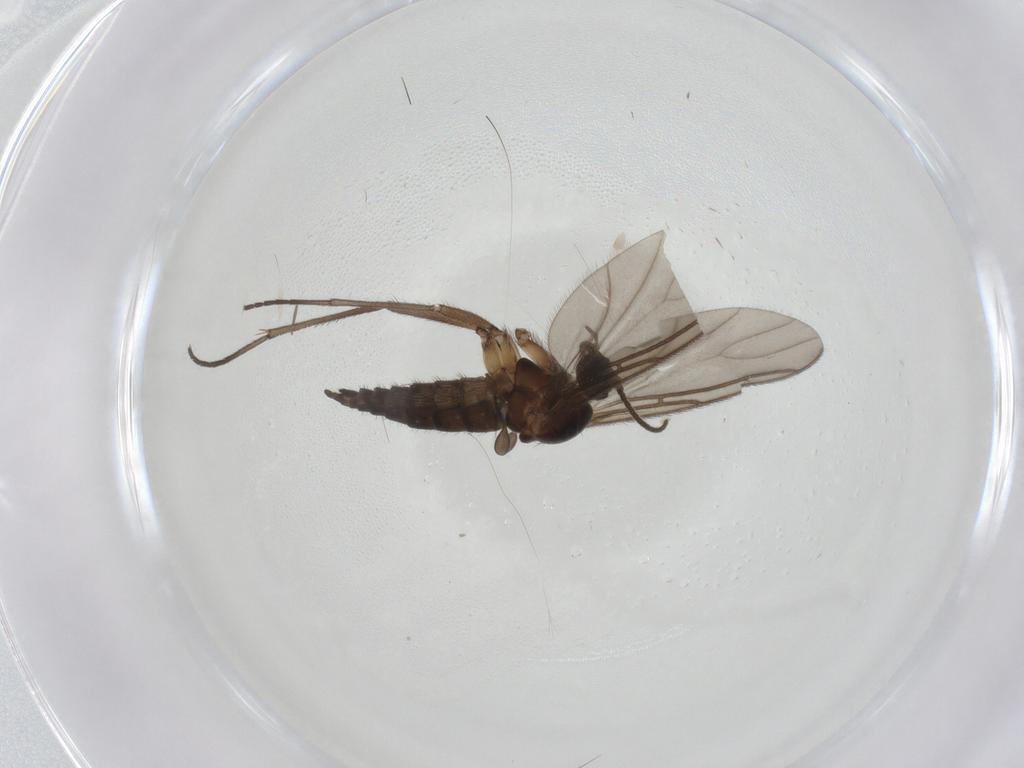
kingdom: Animalia
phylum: Arthropoda
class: Insecta
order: Diptera
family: Sciaridae
